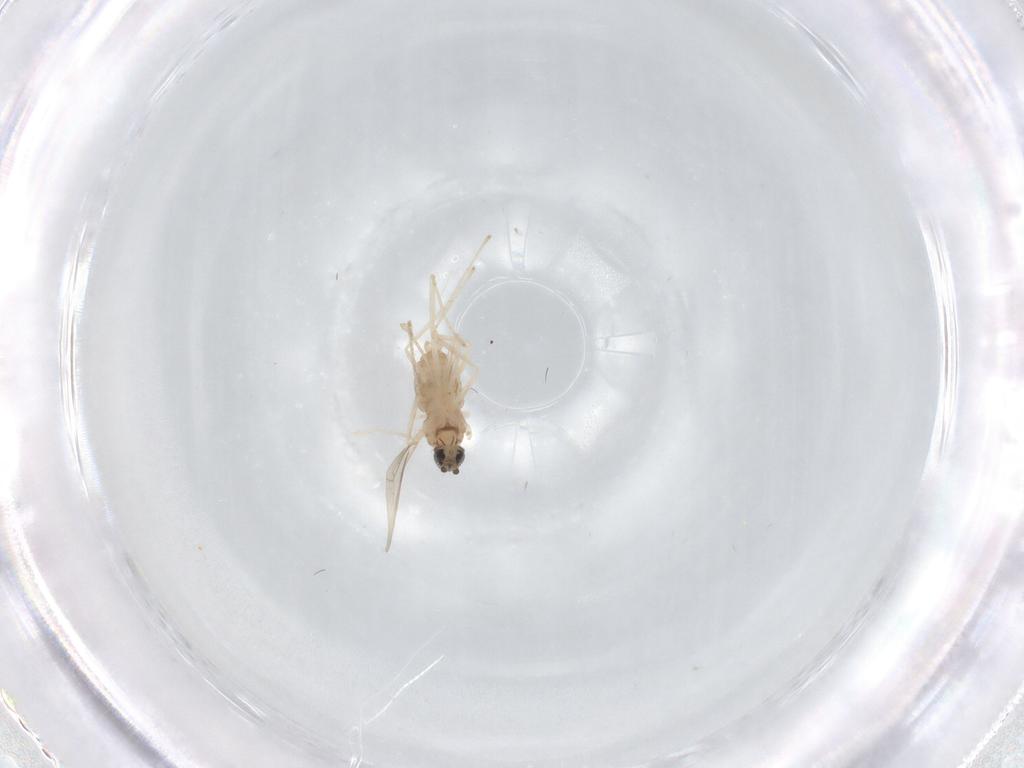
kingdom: Animalia
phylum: Arthropoda
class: Insecta
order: Diptera
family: Cecidomyiidae
